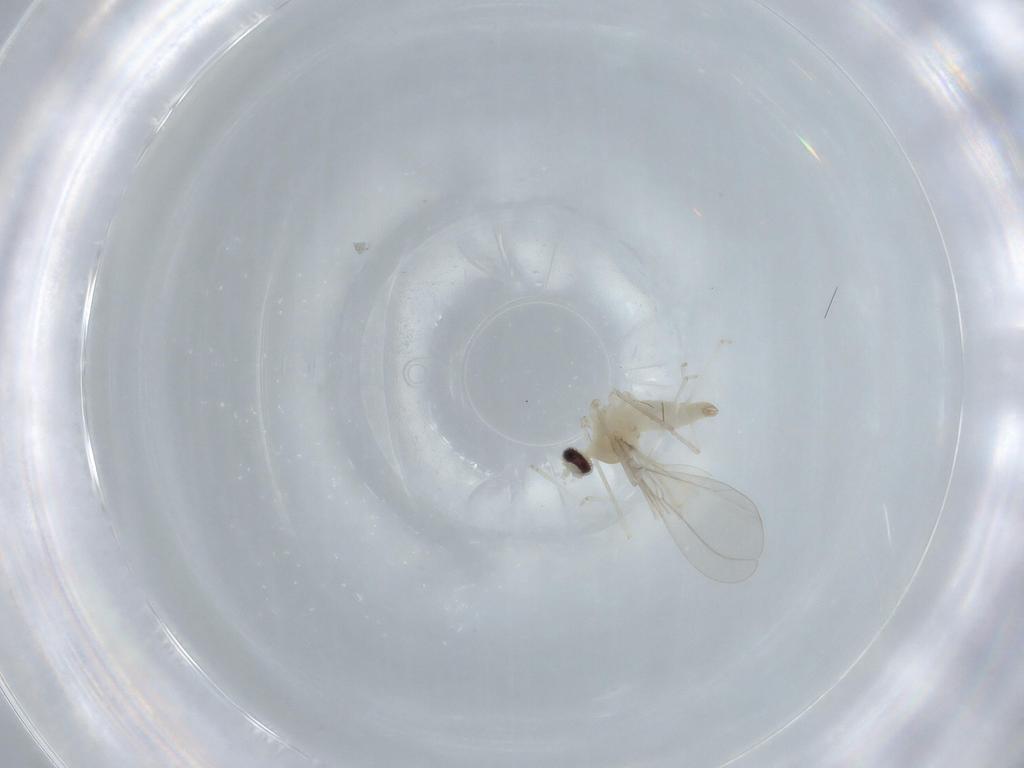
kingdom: Animalia
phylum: Arthropoda
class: Insecta
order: Diptera
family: Cecidomyiidae
